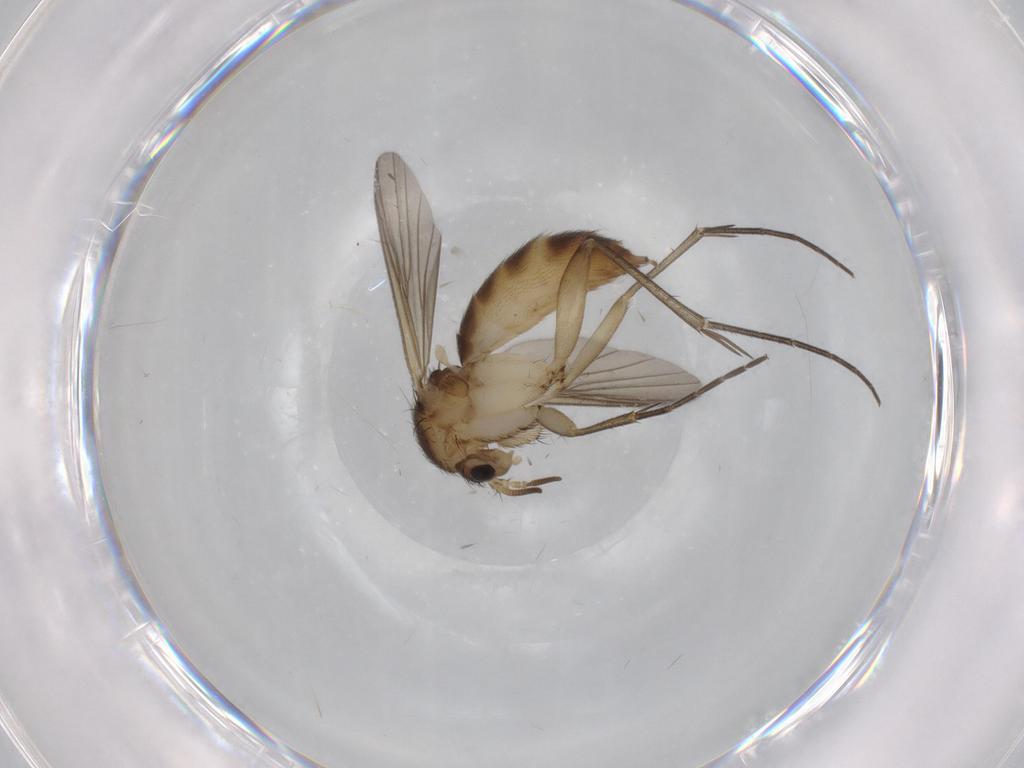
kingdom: Animalia
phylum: Arthropoda
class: Insecta
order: Diptera
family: Mycetophilidae
